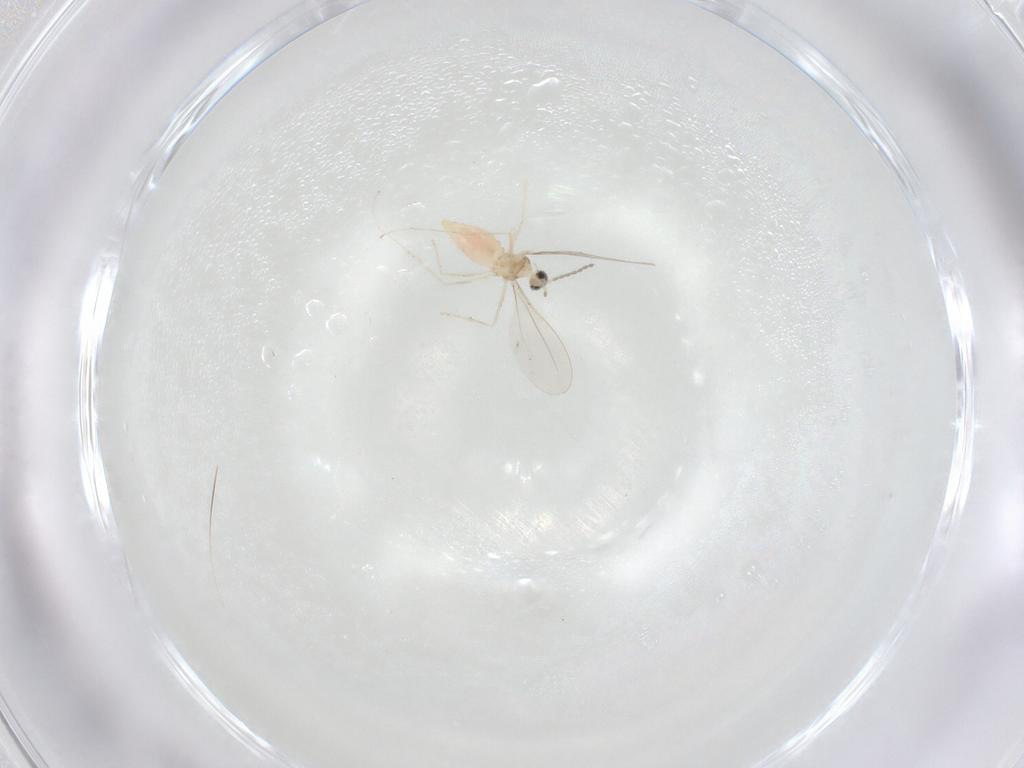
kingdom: Animalia
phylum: Arthropoda
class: Insecta
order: Diptera
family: Cecidomyiidae
